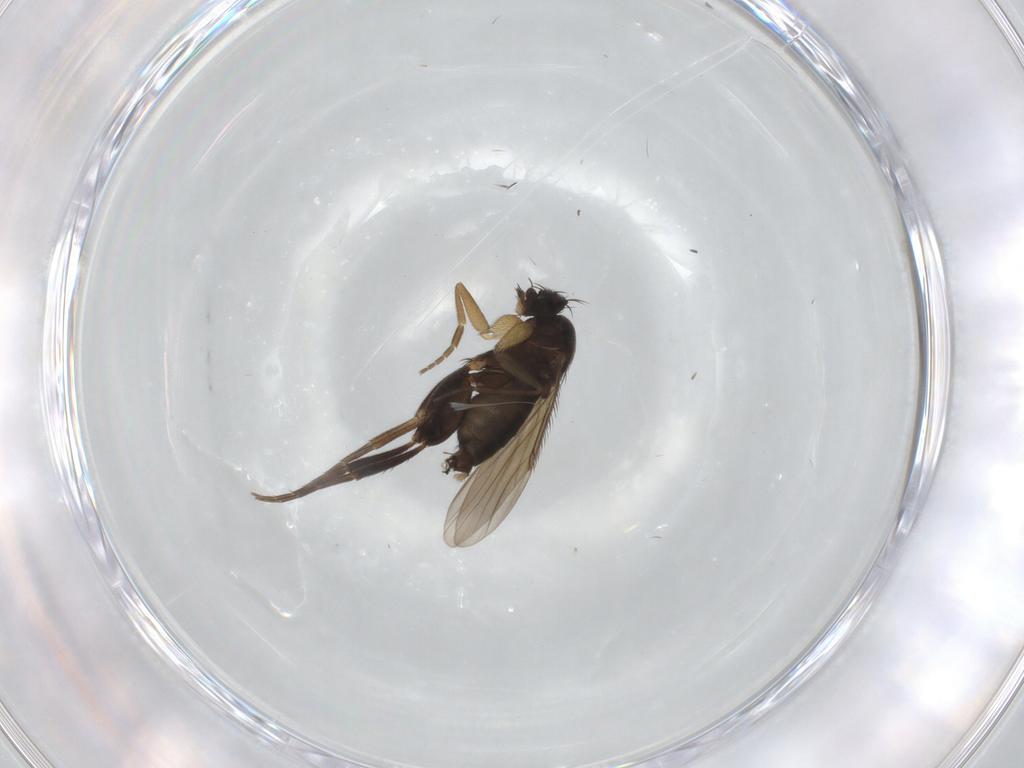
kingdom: Animalia
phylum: Arthropoda
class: Insecta
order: Diptera
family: Phoridae
